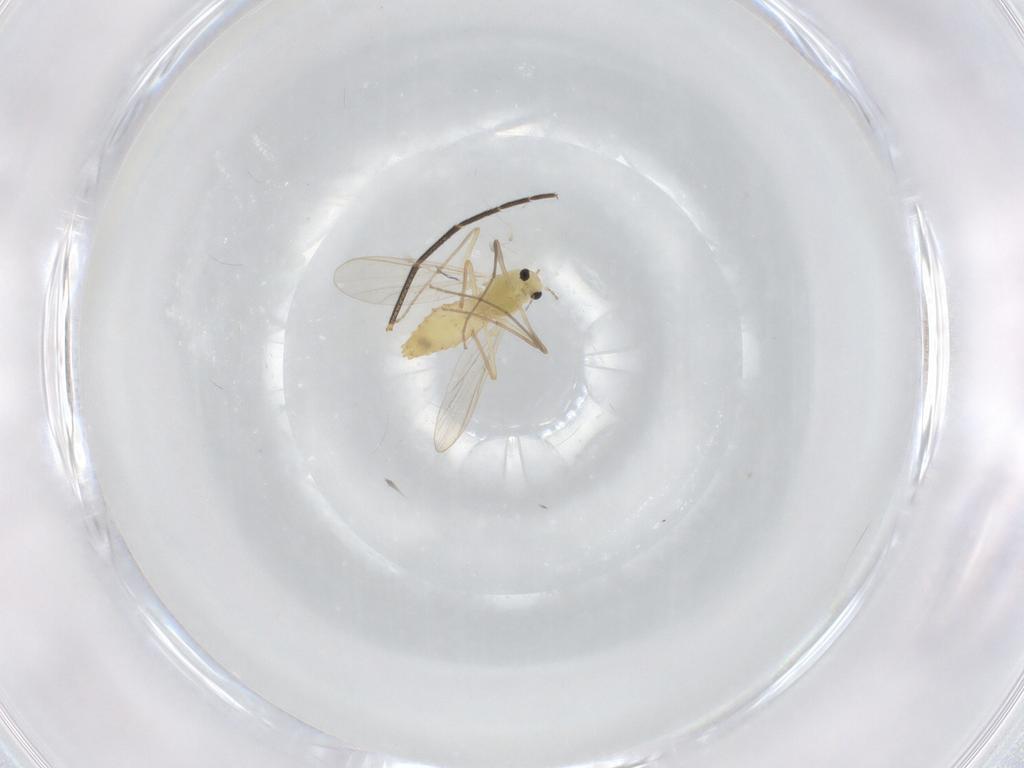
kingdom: Animalia
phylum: Arthropoda
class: Insecta
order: Diptera
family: Chironomidae
